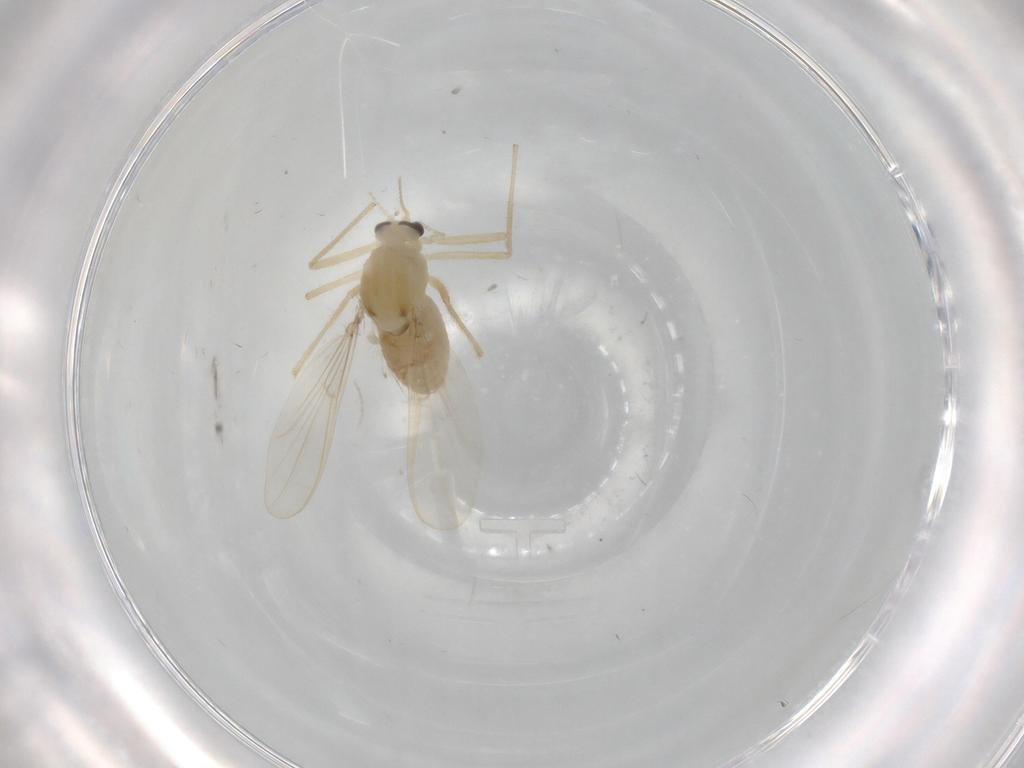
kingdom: Animalia
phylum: Arthropoda
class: Insecta
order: Diptera
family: Chironomidae
